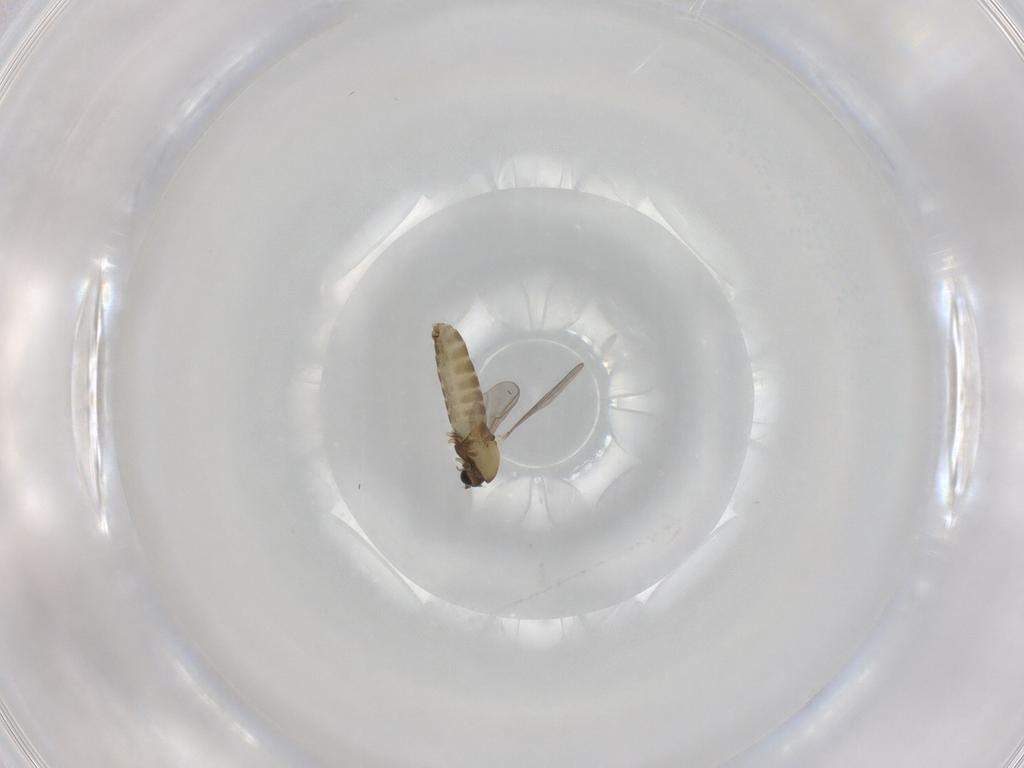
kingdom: Animalia
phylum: Arthropoda
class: Insecta
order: Diptera
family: Chironomidae
